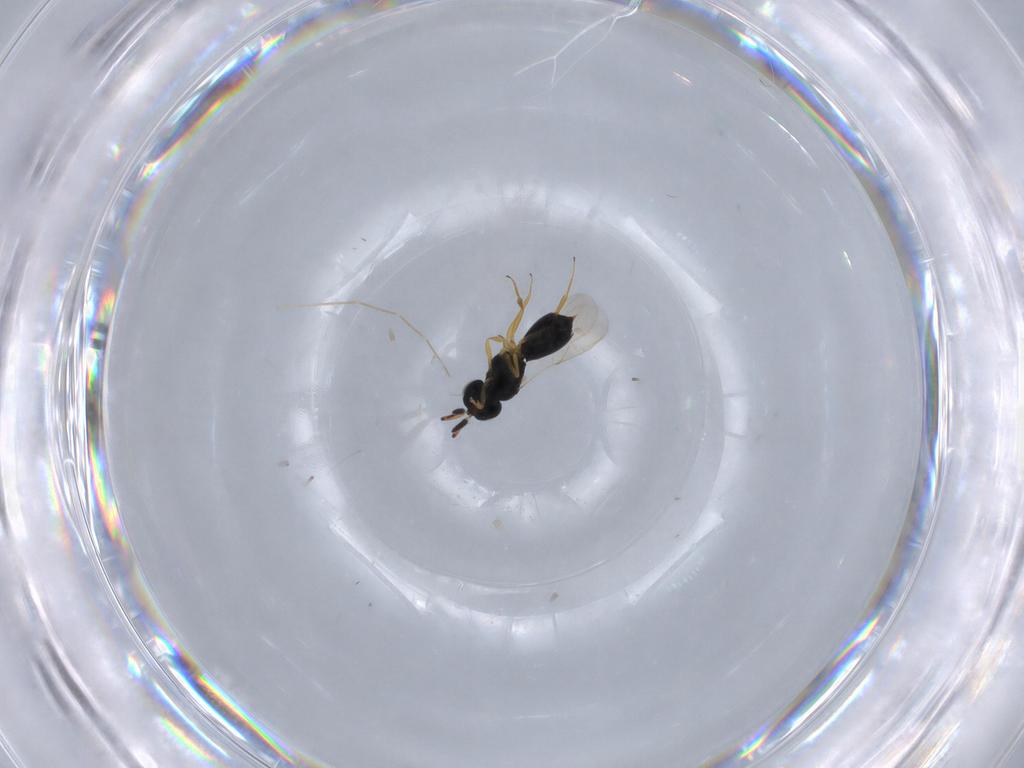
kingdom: Animalia
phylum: Arthropoda
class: Insecta
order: Hymenoptera
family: Scelionidae
